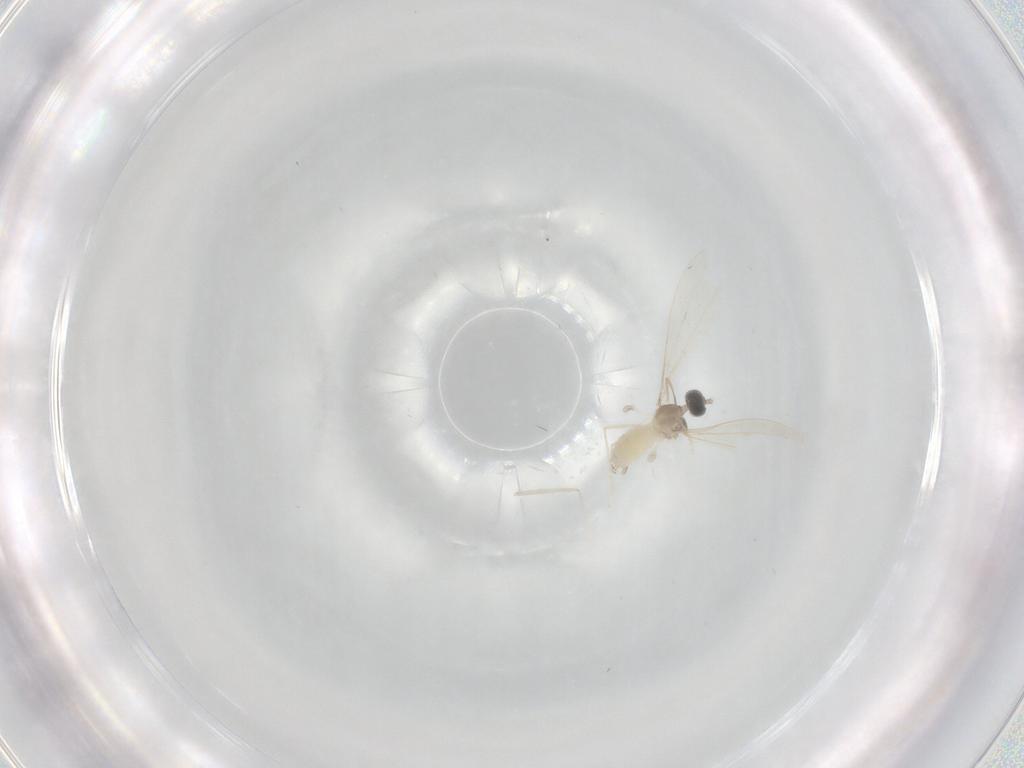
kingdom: Animalia
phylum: Arthropoda
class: Insecta
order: Diptera
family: Cecidomyiidae
